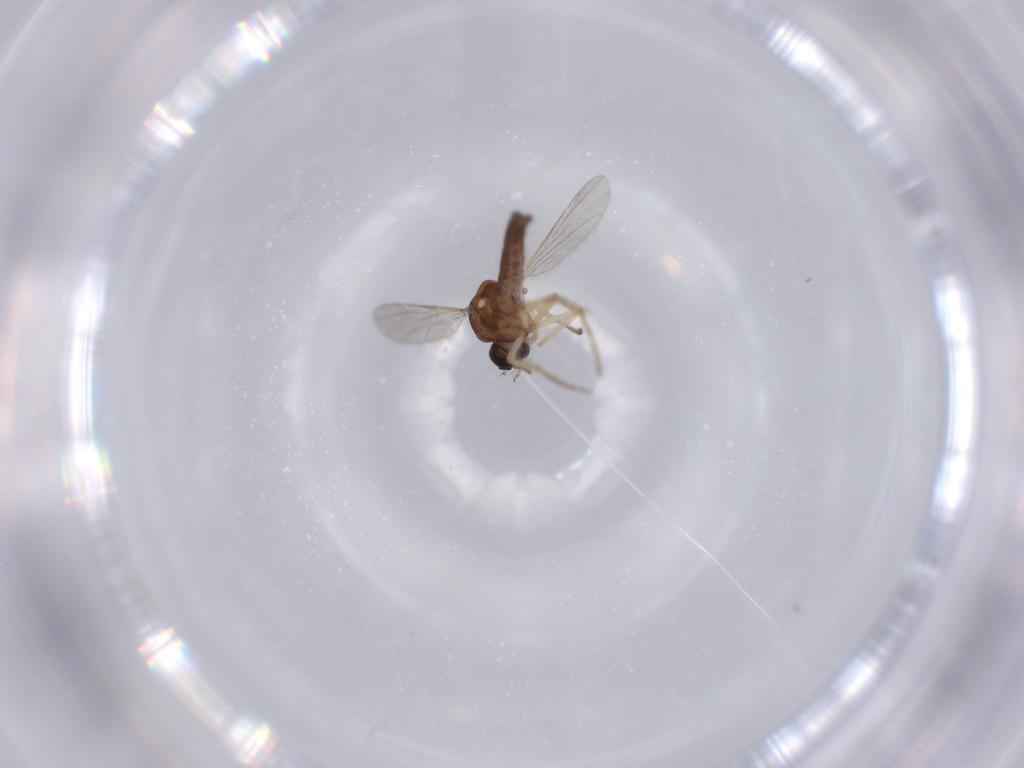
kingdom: Animalia
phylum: Arthropoda
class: Insecta
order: Diptera
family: Ceratopogonidae
